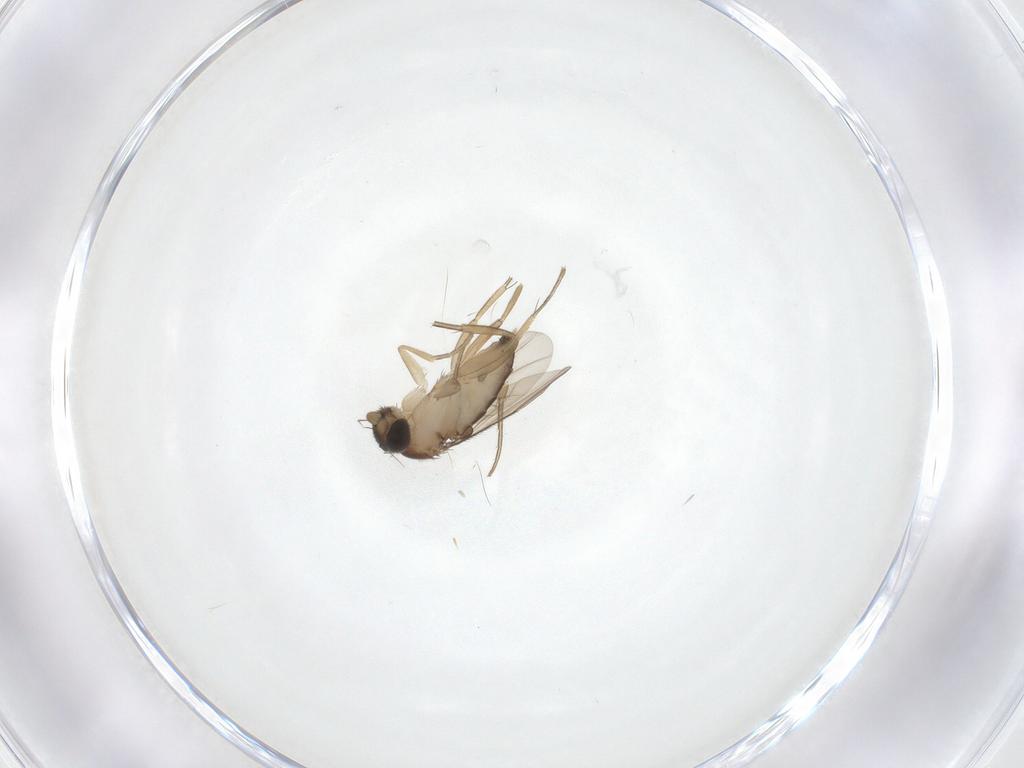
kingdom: Animalia
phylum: Arthropoda
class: Insecta
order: Diptera
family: Phoridae
